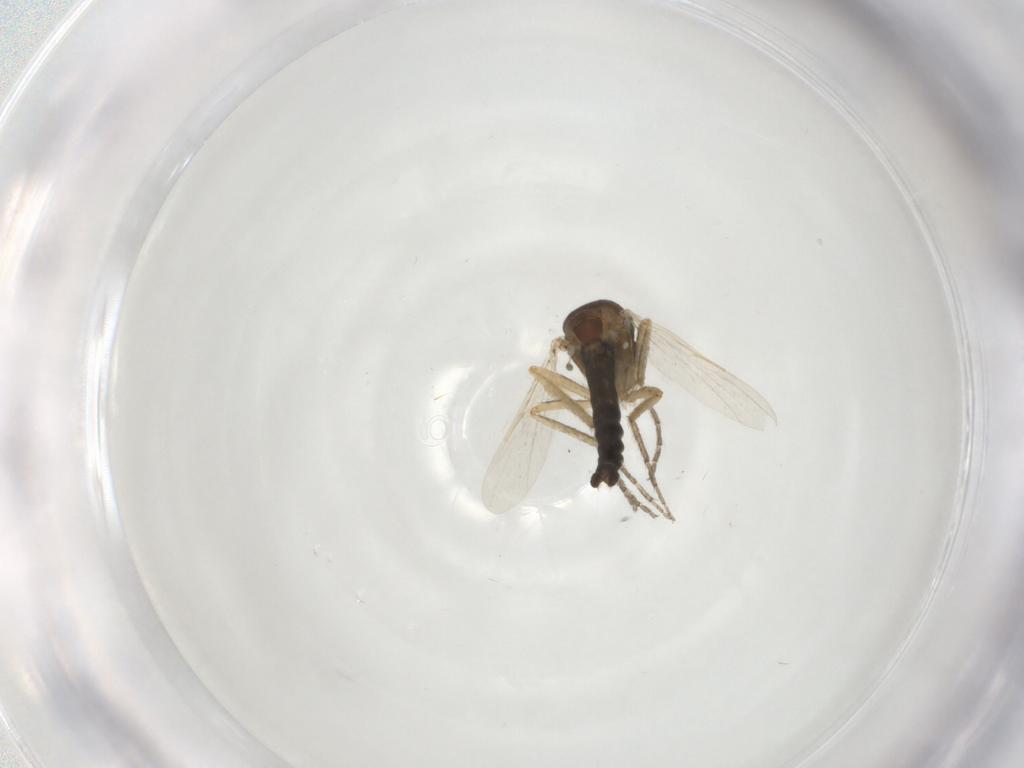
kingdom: Animalia
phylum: Arthropoda
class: Insecta
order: Diptera
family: Ceratopogonidae
